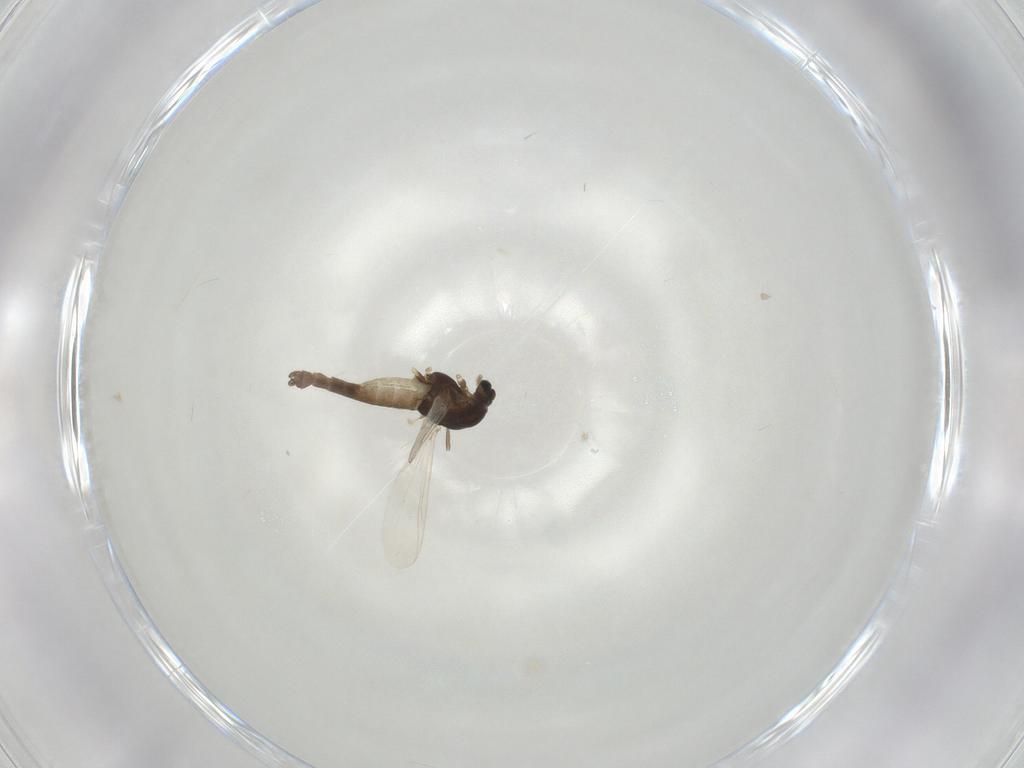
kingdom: Animalia
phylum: Arthropoda
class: Insecta
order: Diptera
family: Chironomidae
